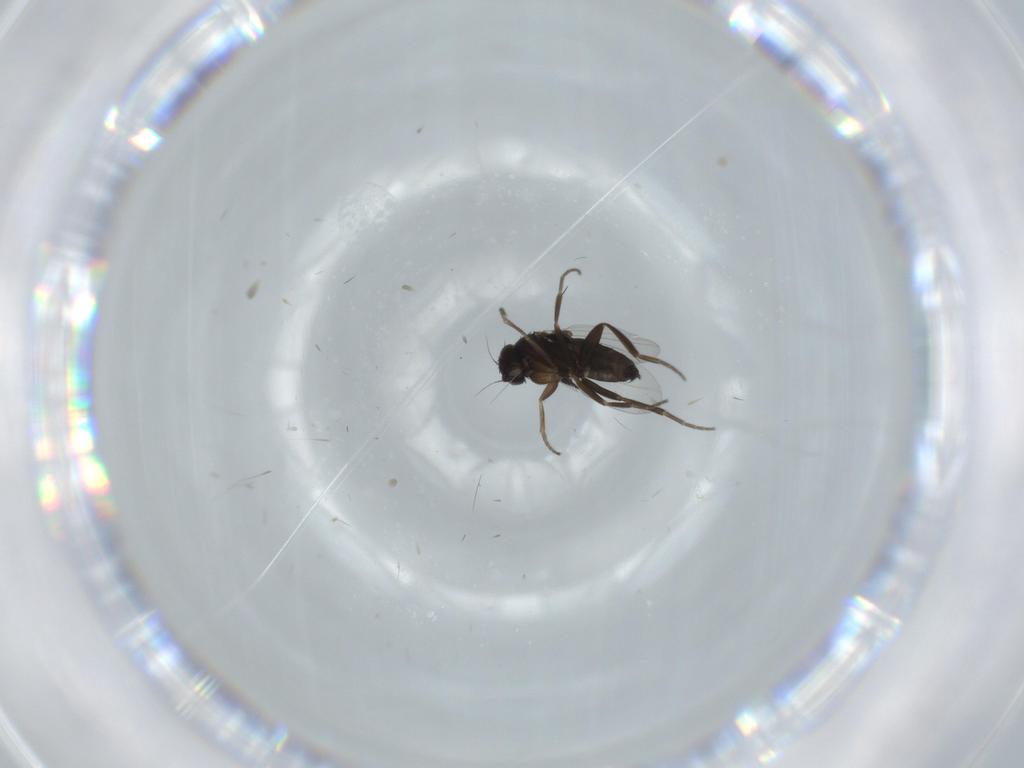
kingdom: Animalia
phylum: Arthropoda
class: Insecta
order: Diptera
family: Phoridae
